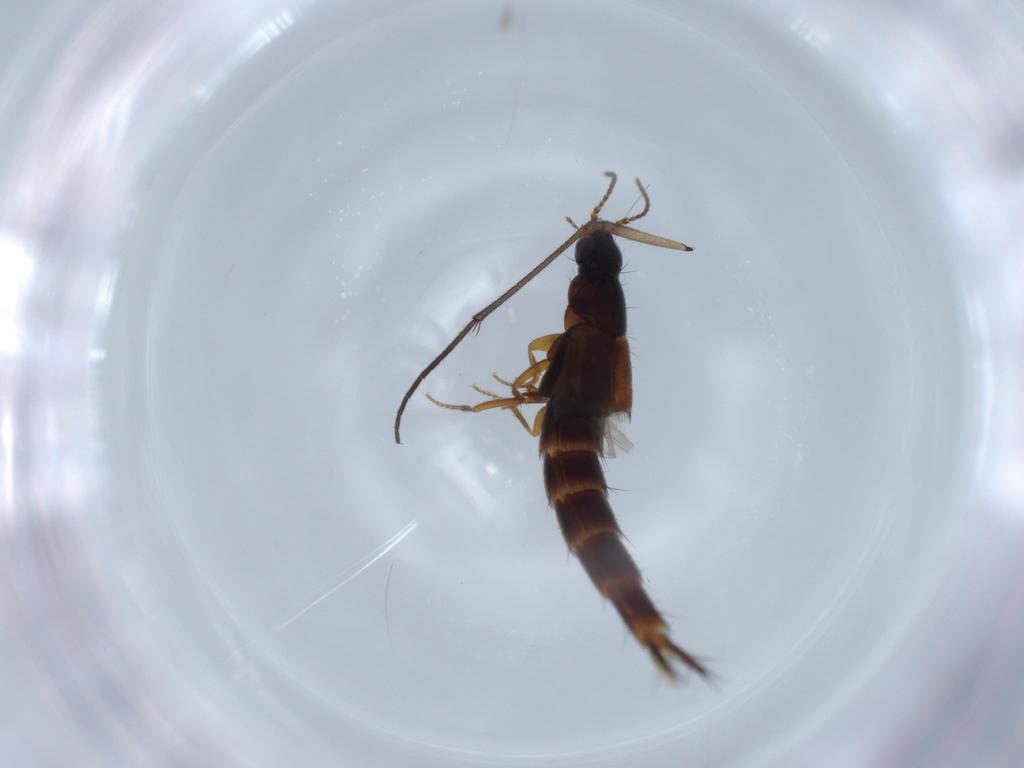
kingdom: Animalia
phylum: Arthropoda
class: Insecta
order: Coleoptera
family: Staphylinidae
